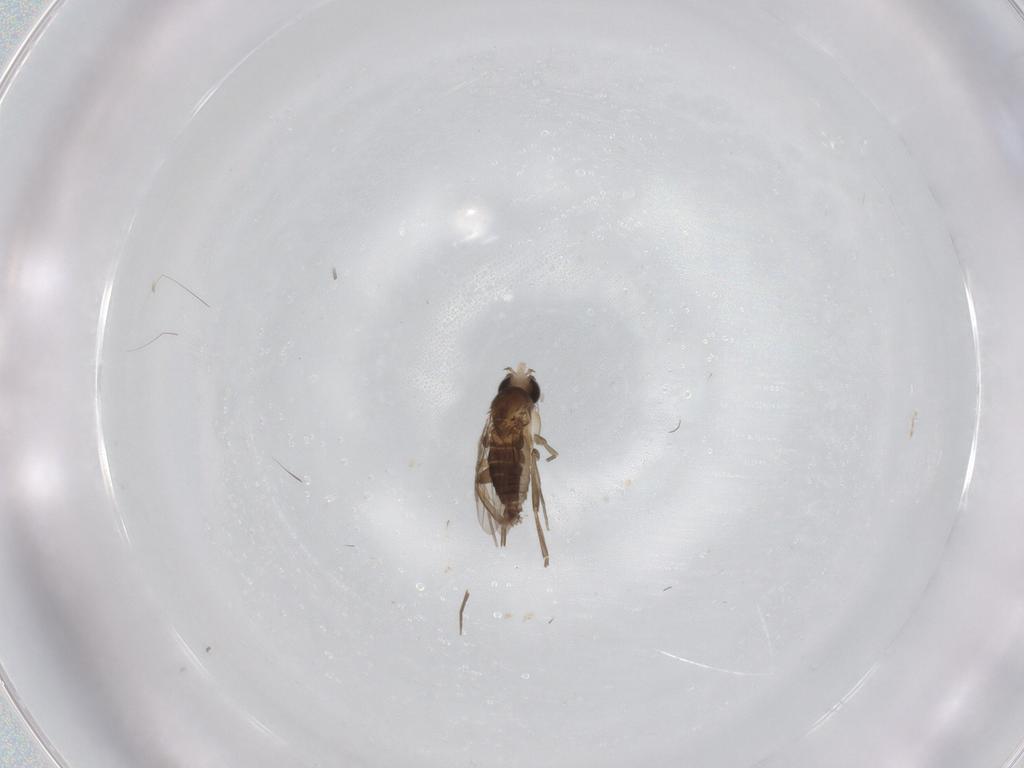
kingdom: Animalia
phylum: Arthropoda
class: Insecta
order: Diptera
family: Phoridae
